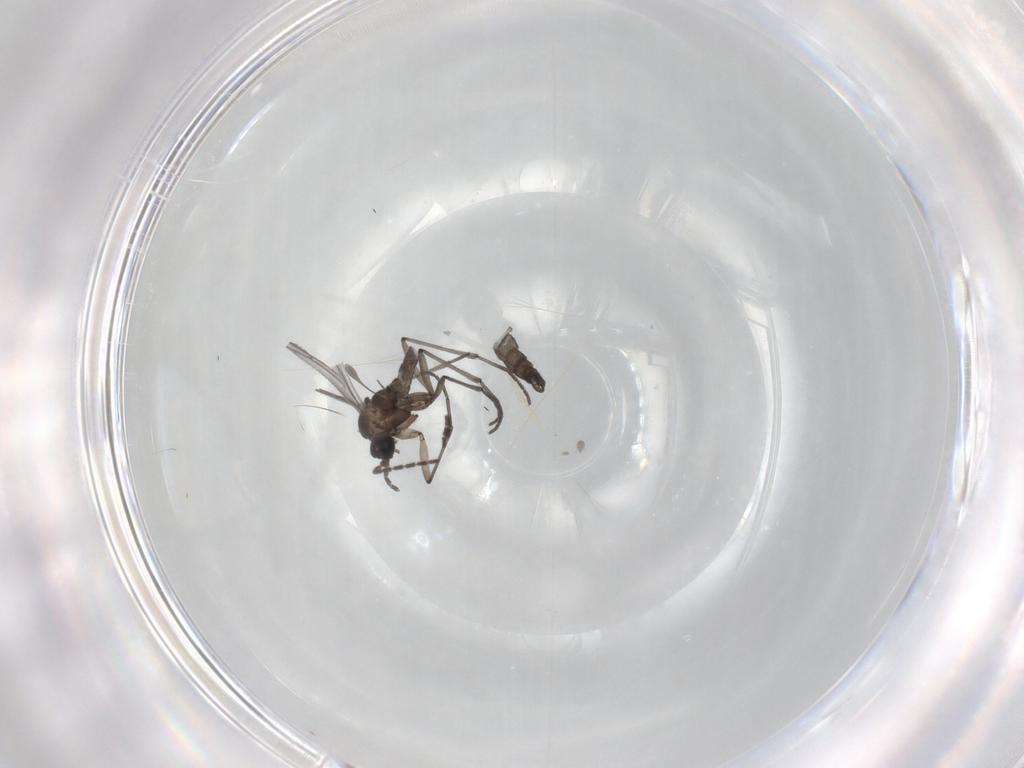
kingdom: Animalia
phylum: Arthropoda
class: Insecta
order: Diptera
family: Sciaridae
